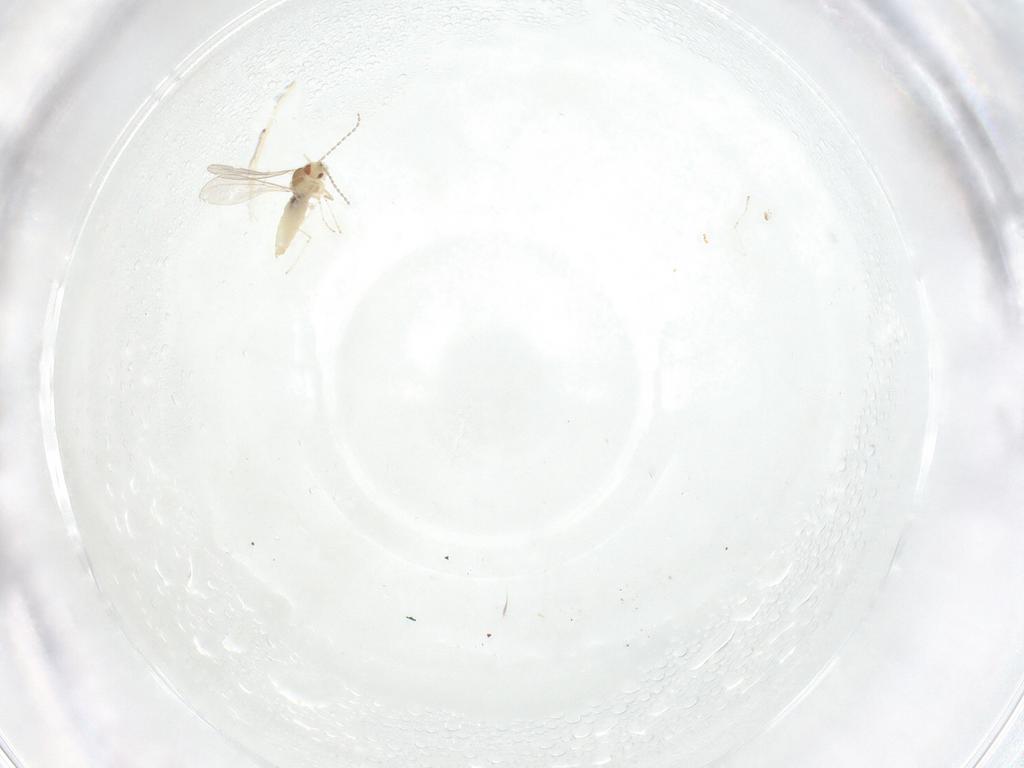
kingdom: Animalia
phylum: Arthropoda
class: Insecta
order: Diptera
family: Cecidomyiidae
